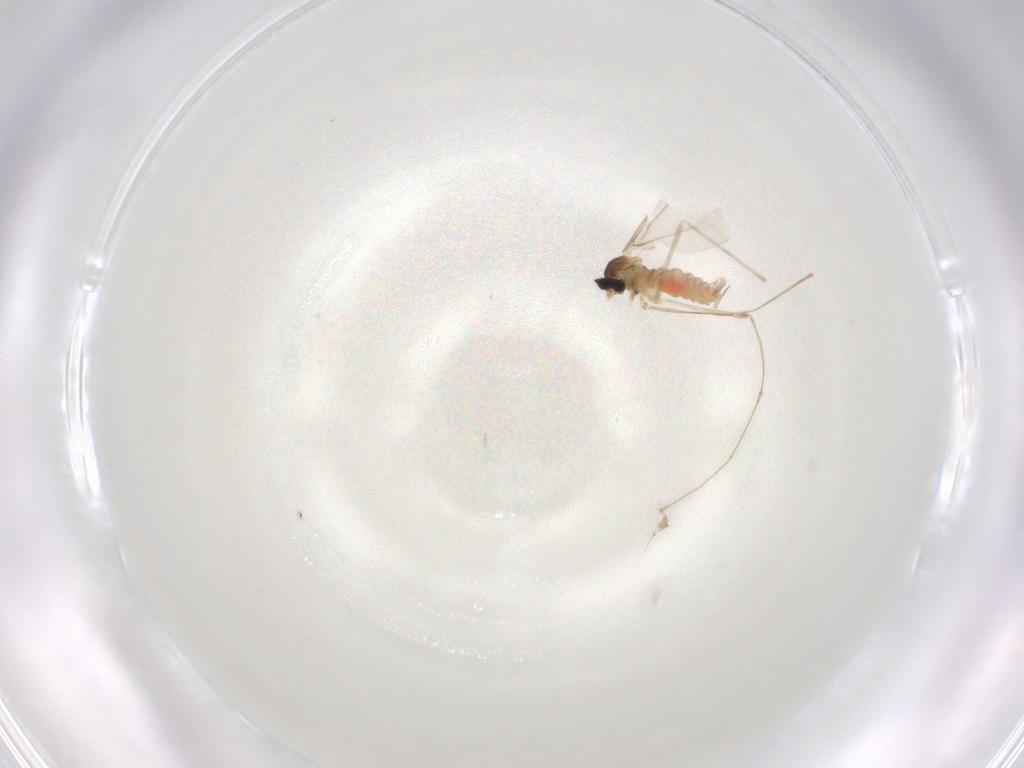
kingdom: Animalia
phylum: Arthropoda
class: Insecta
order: Diptera
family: Cecidomyiidae
